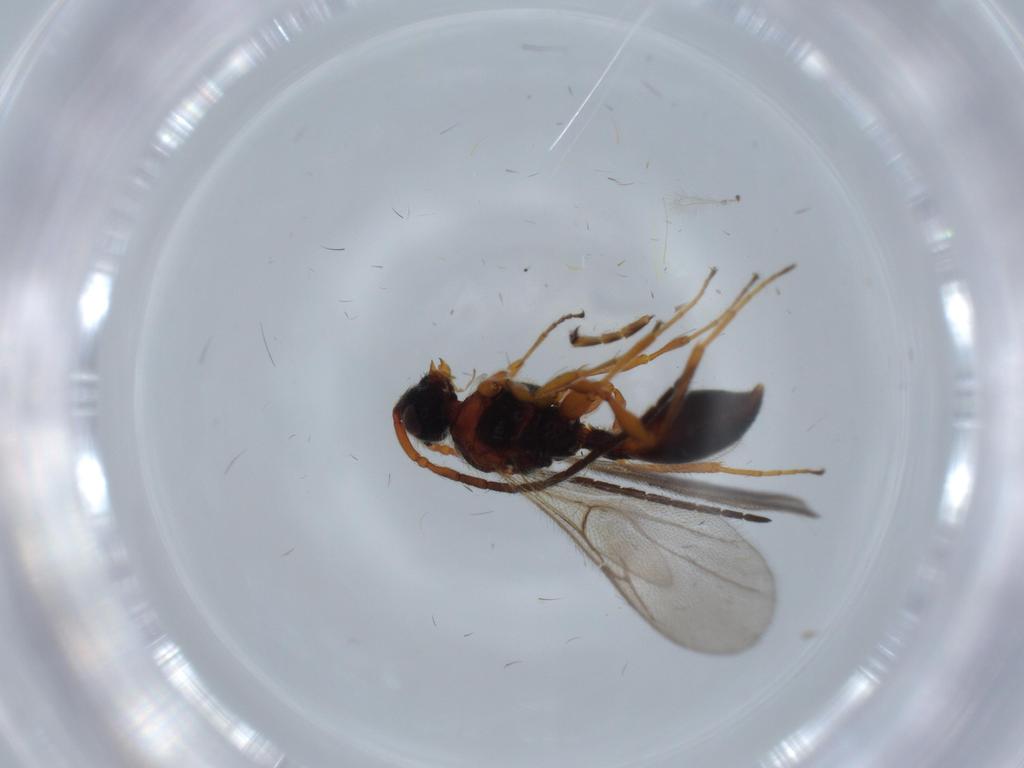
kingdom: Animalia
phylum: Arthropoda
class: Insecta
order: Hymenoptera
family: Ichneumonidae
